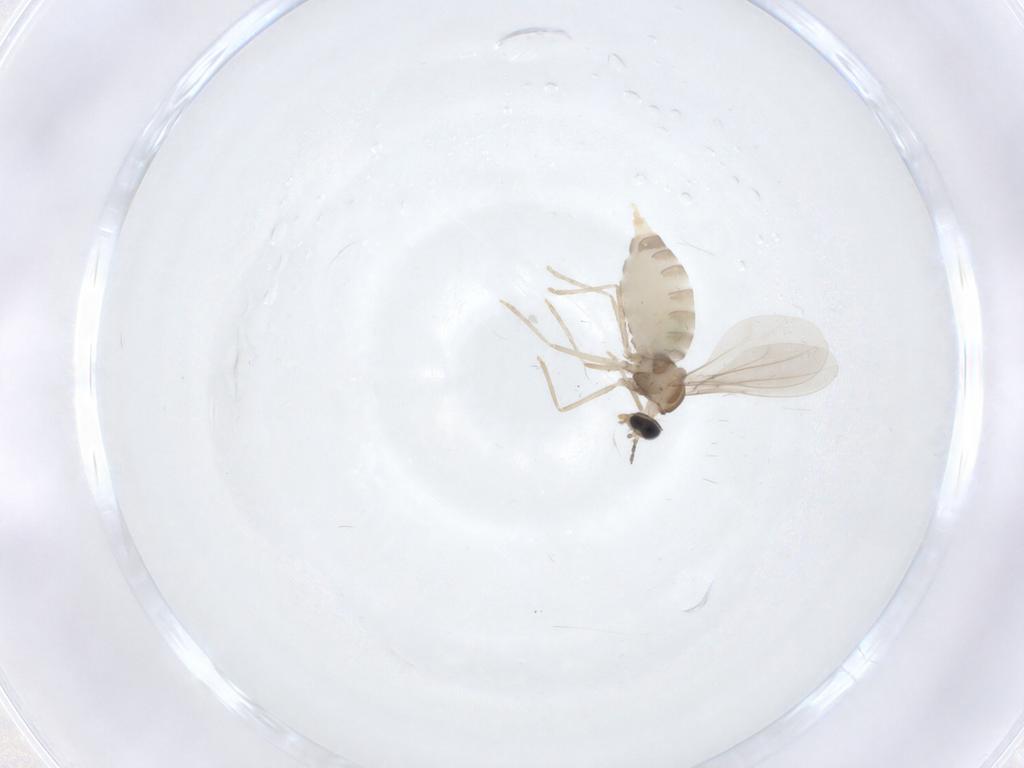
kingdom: Animalia
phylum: Arthropoda
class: Insecta
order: Diptera
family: Cecidomyiidae
